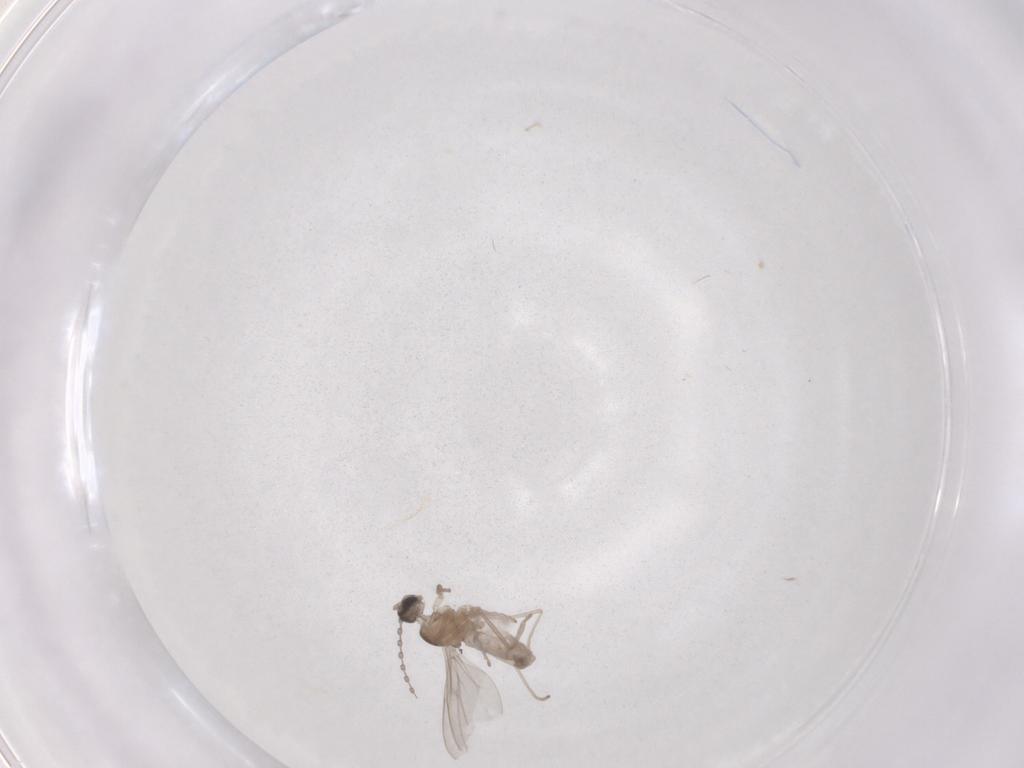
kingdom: Animalia
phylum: Arthropoda
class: Insecta
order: Diptera
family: Cecidomyiidae
